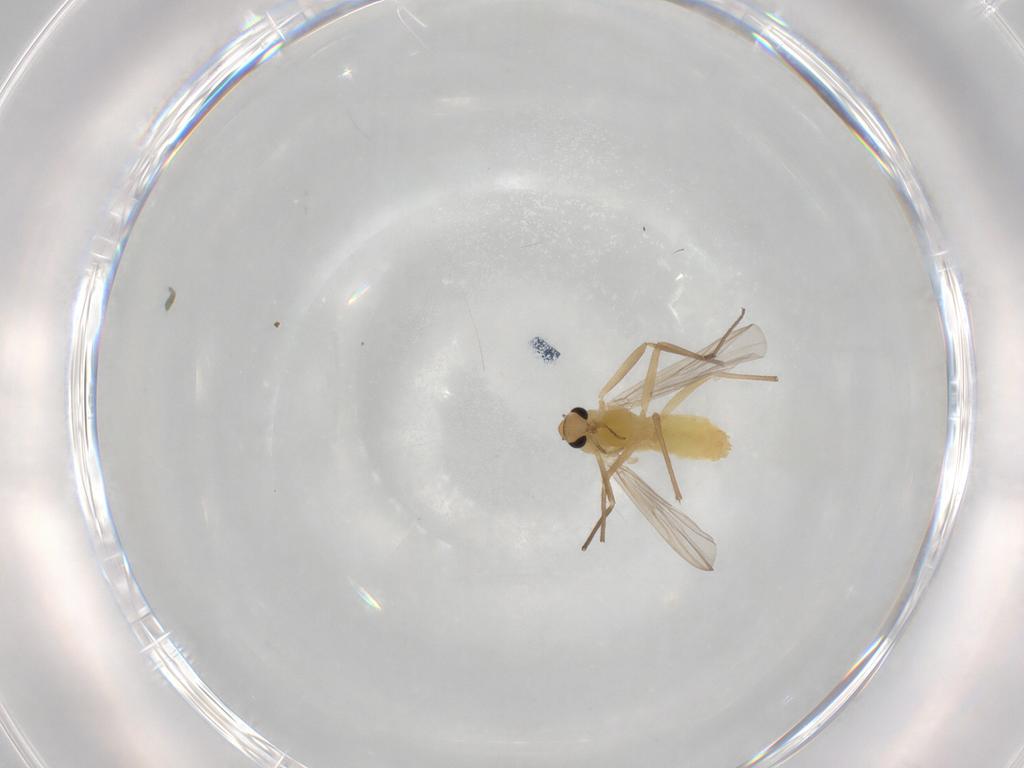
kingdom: Animalia
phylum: Arthropoda
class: Insecta
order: Diptera
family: Chironomidae
